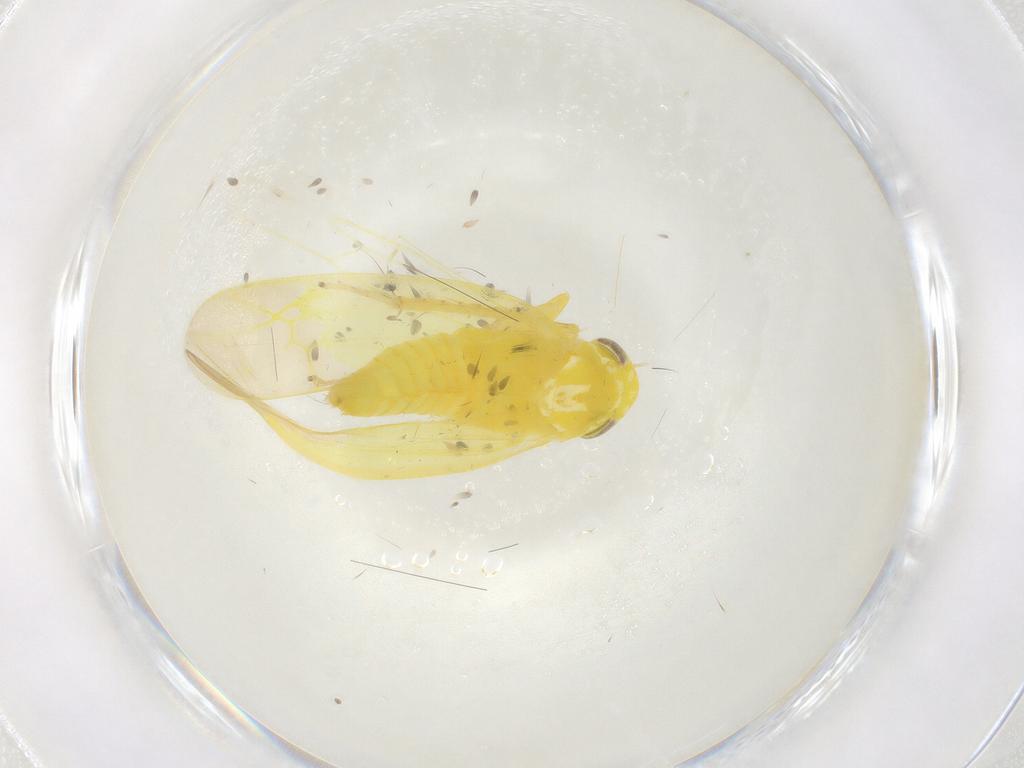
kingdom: Animalia
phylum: Arthropoda
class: Insecta
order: Hemiptera
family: Cicadellidae
